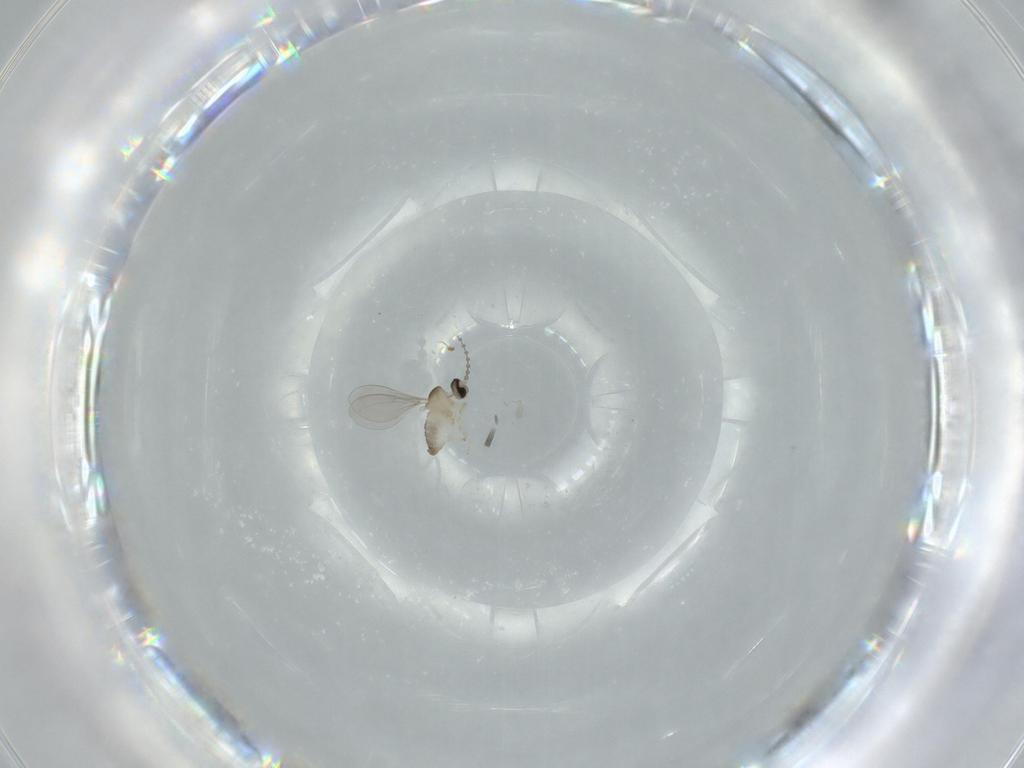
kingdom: Animalia
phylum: Arthropoda
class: Insecta
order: Diptera
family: Cecidomyiidae
